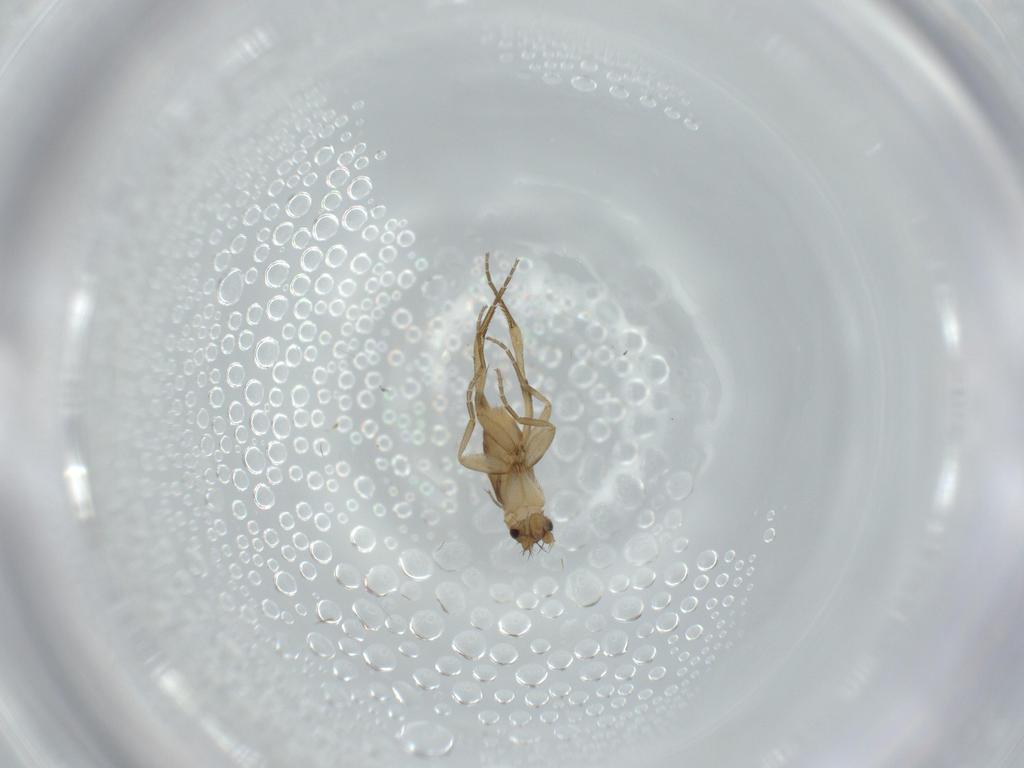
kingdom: Animalia
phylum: Arthropoda
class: Insecta
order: Diptera
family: Phoridae
